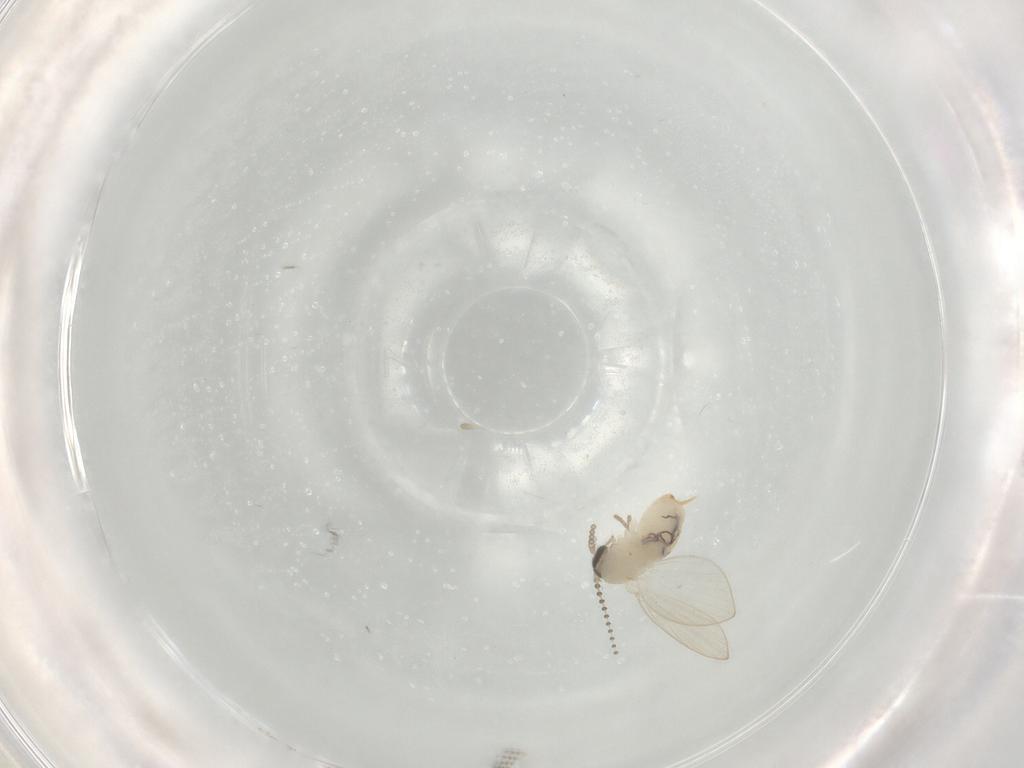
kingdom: Animalia
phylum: Arthropoda
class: Insecta
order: Diptera
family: Psychodidae
